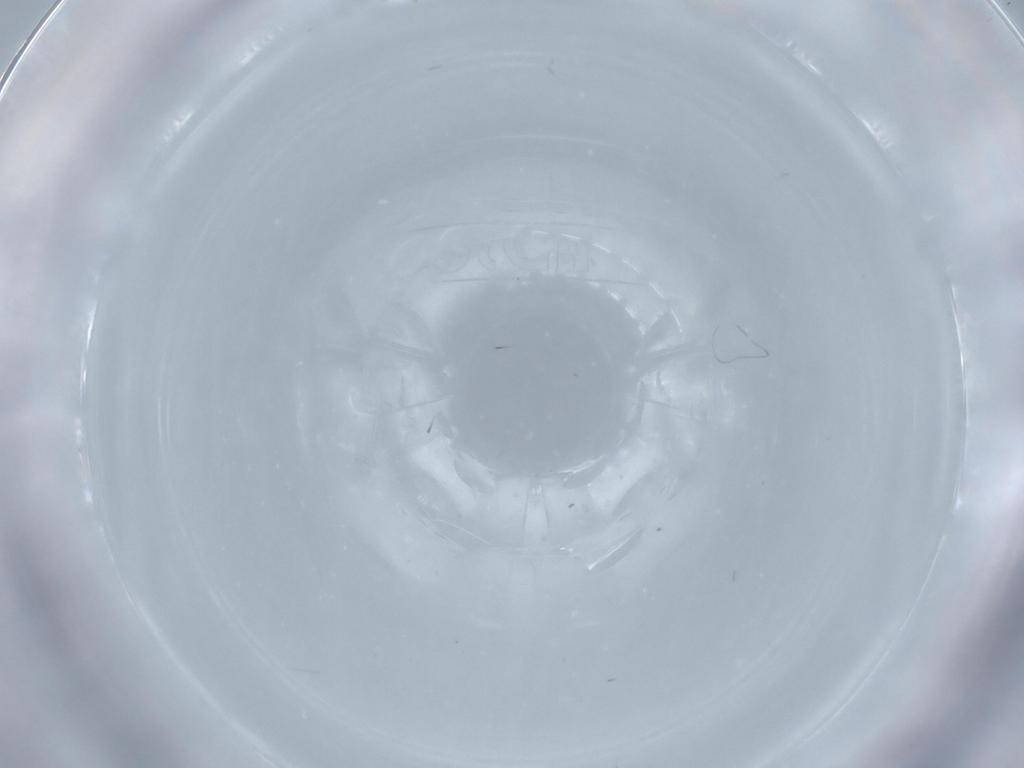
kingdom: Animalia
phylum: Arthropoda
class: Insecta
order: Hymenoptera
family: Trichogrammatidae
